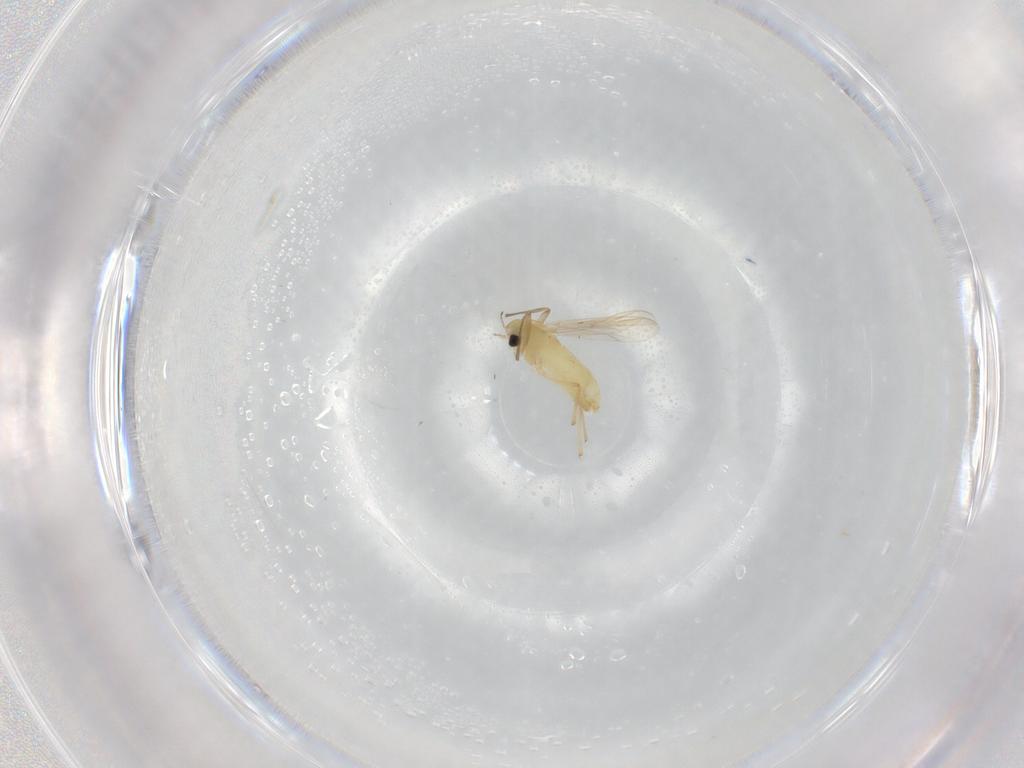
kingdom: Animalia
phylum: Arthropoda
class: Insecta
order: Diptera
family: Chironomidae
